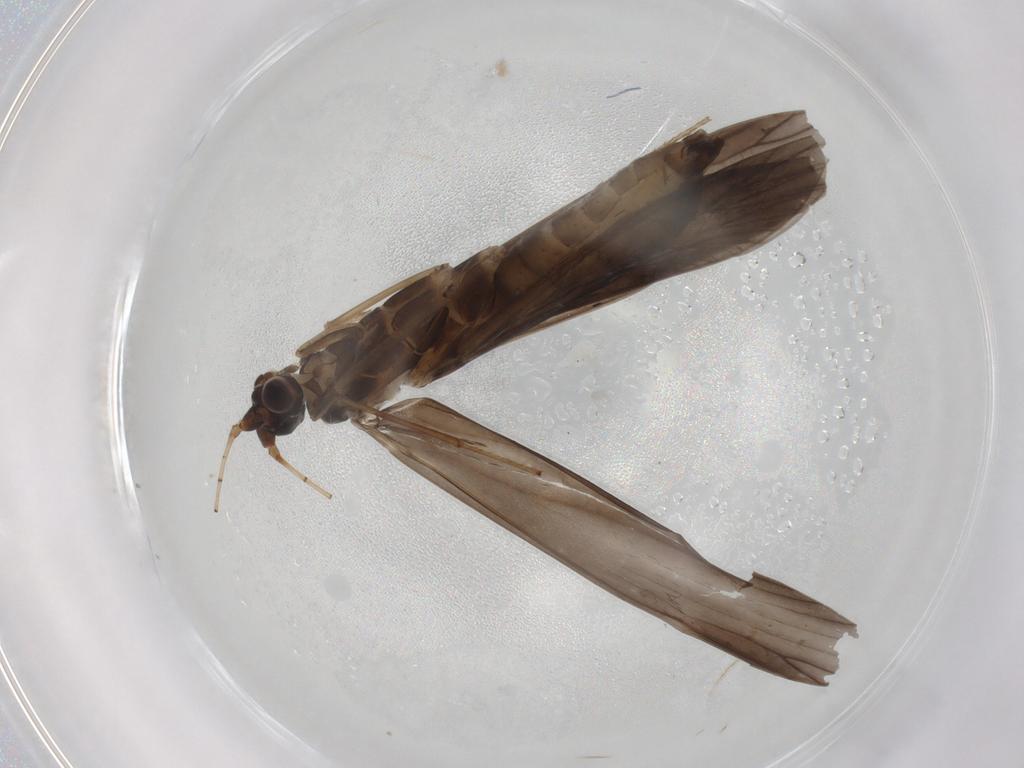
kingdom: Animalia
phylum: Arthropoda
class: Insecta
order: Trichoptera
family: Leptoceridae
